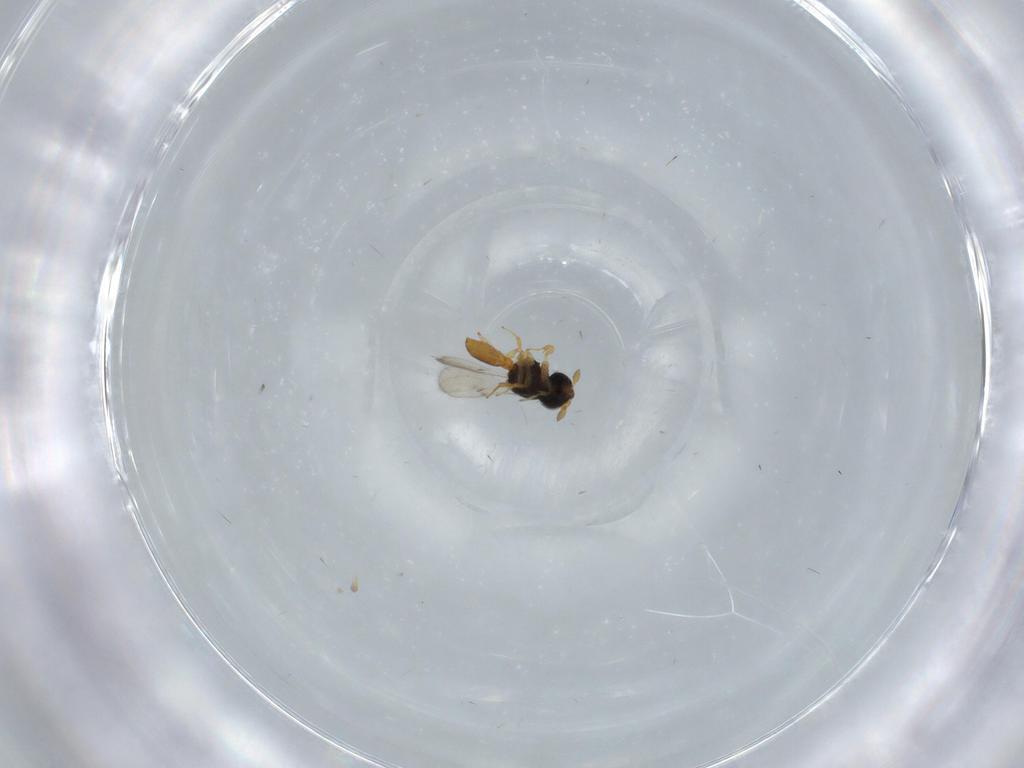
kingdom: Animalia
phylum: Arthropoda
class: Insecta
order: Hymenoptera
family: Scelionidae
